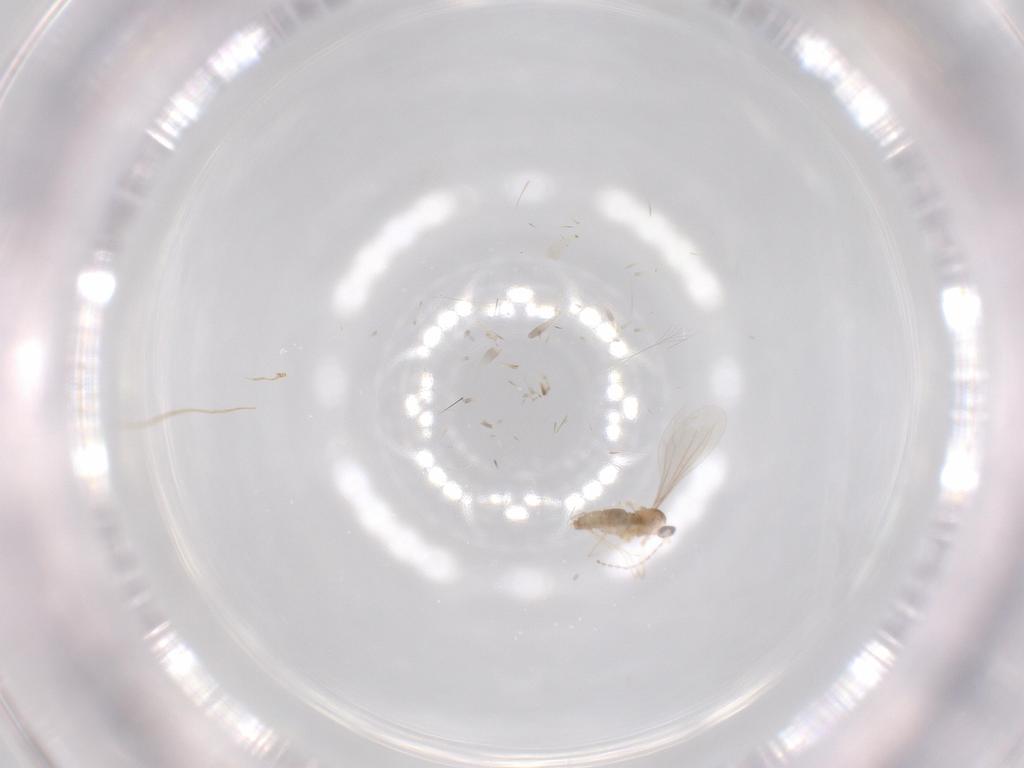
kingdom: Animalia
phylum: Arthropoda
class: Insecta
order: Diptera
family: Cecidomyiidae
